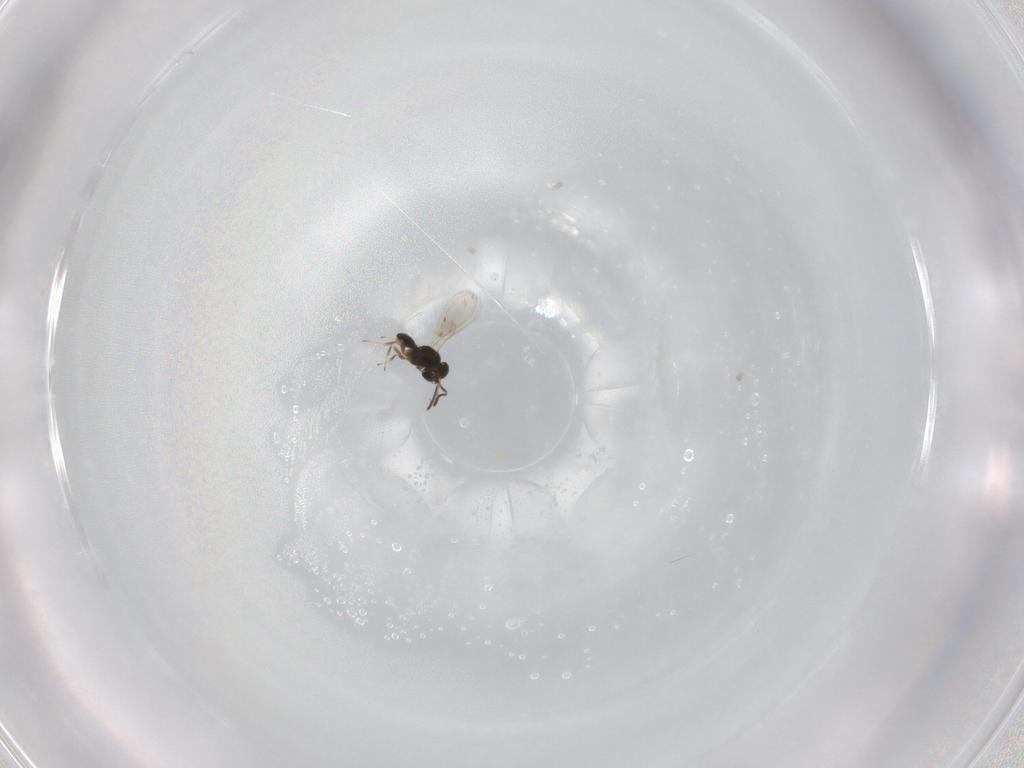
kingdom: Animalia
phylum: Arthropoda
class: Insecta
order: Hymenoptera
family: Scelionidae
